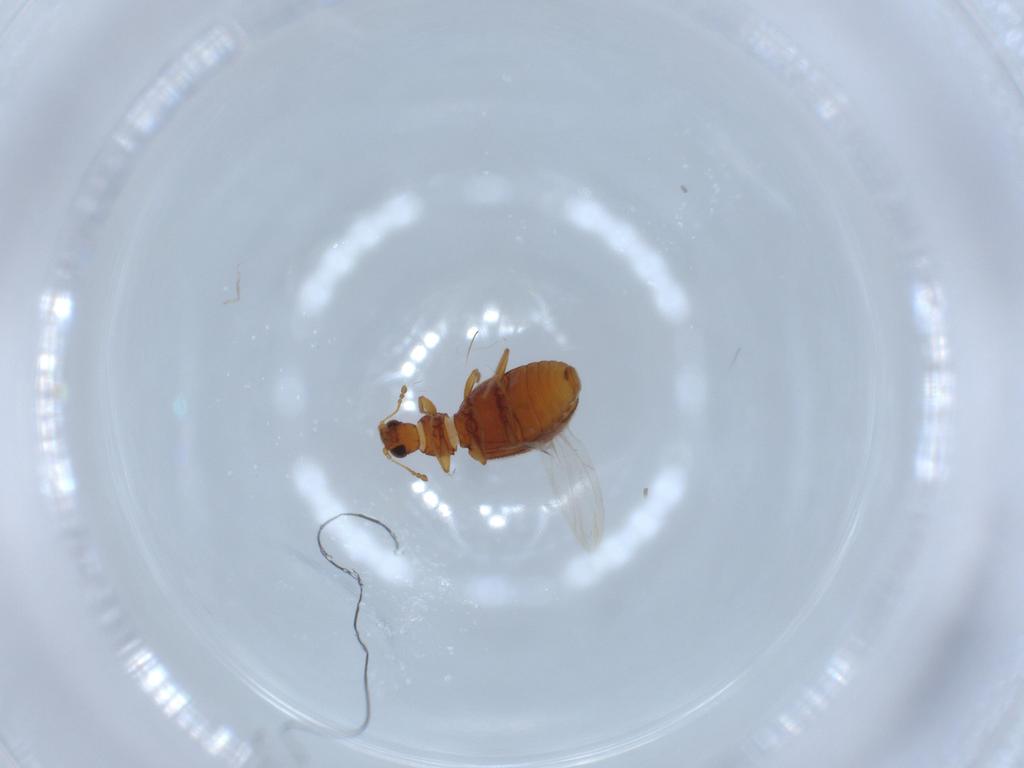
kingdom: Animalia
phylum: Arthropoda
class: Insecta
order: Coleoptera
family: Latridiidae
